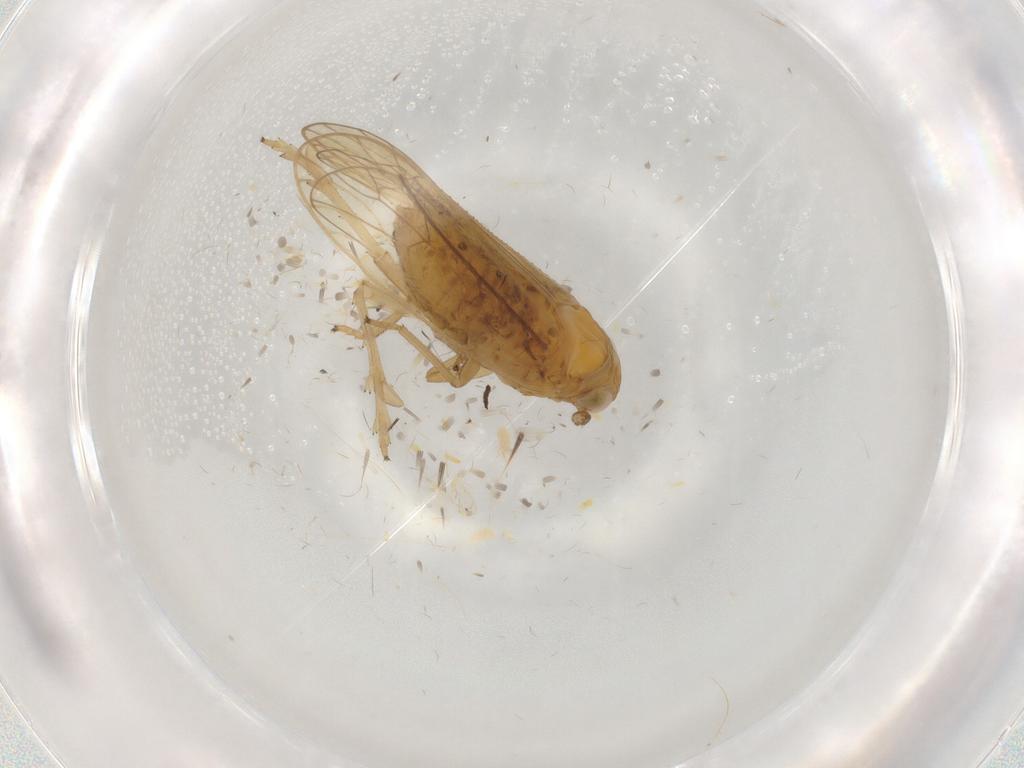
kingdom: Animalia
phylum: Arthropoda
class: Insecta
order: Hemiptera
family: Delphacidae
